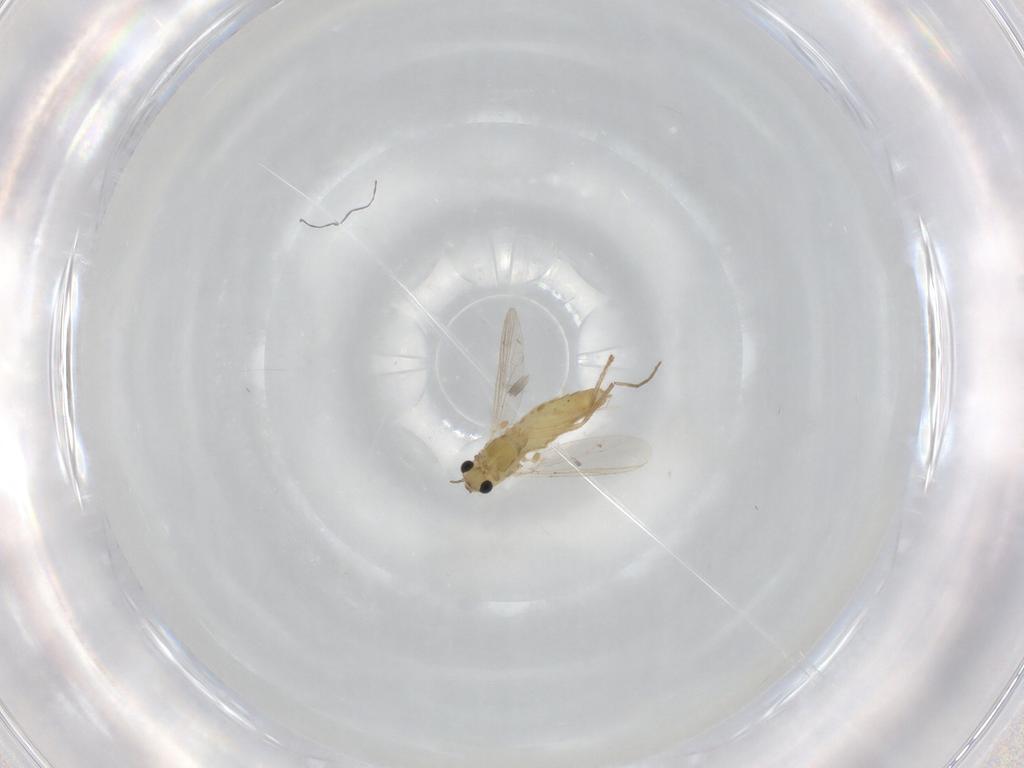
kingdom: Animalia
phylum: Arthropoda
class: Insecta
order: Diptera
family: Chironomidae
